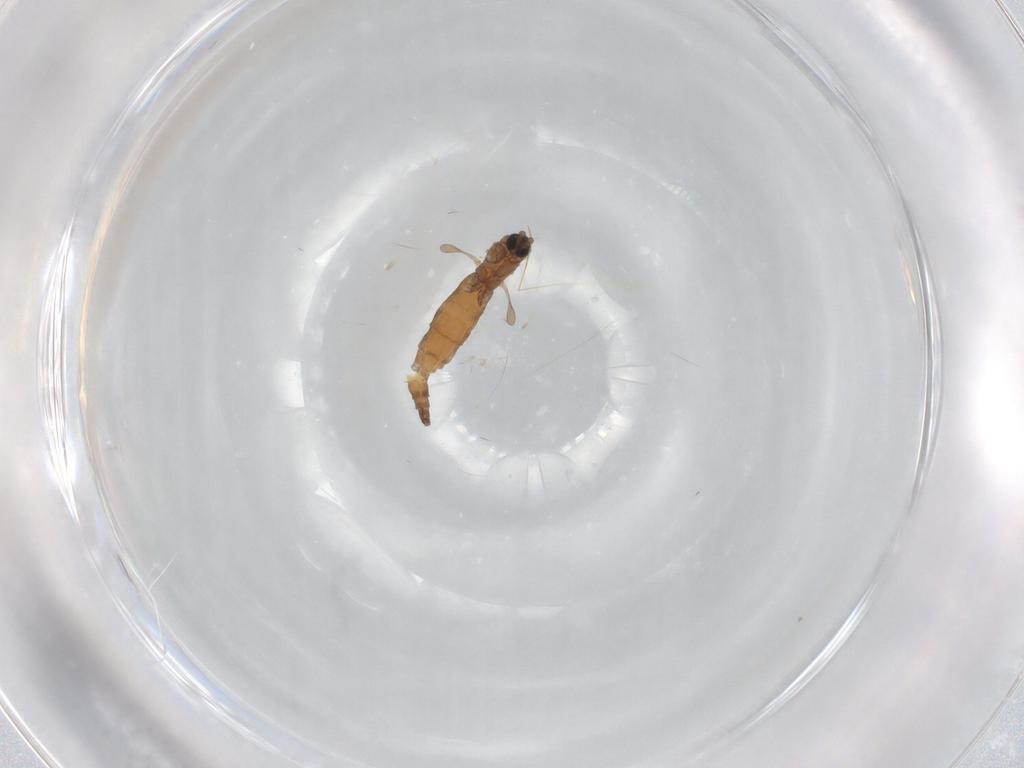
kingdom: Animalia
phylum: Arthropoda
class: Insecta
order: Diptera
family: Sciaridae
